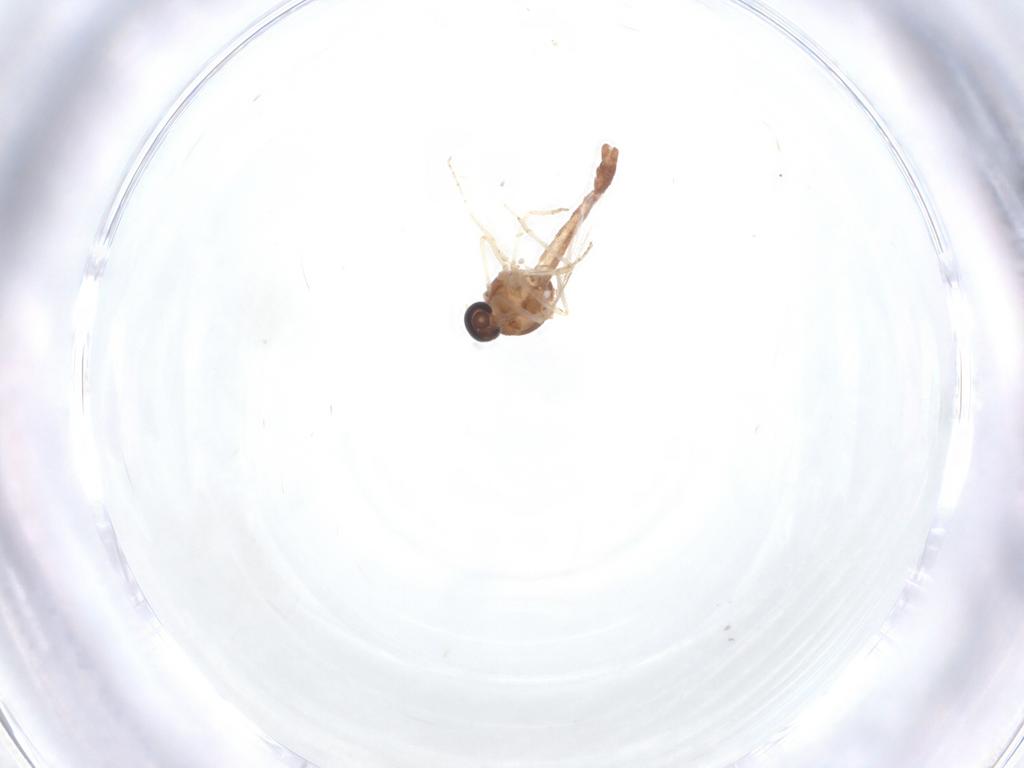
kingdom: Animalia
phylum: Arthropoda
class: Insecta
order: Diptera
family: Ceratopogonidae
